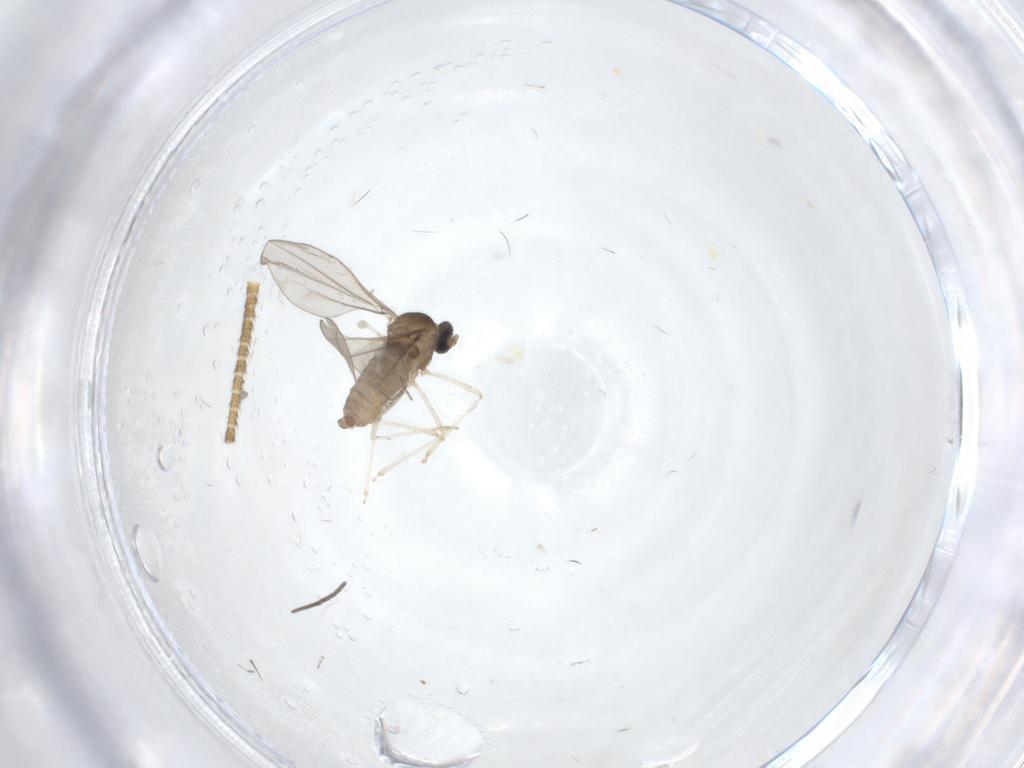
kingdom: Animalia
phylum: Arthropoda
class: Insecta
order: Diptera
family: Cecidomyiidae
